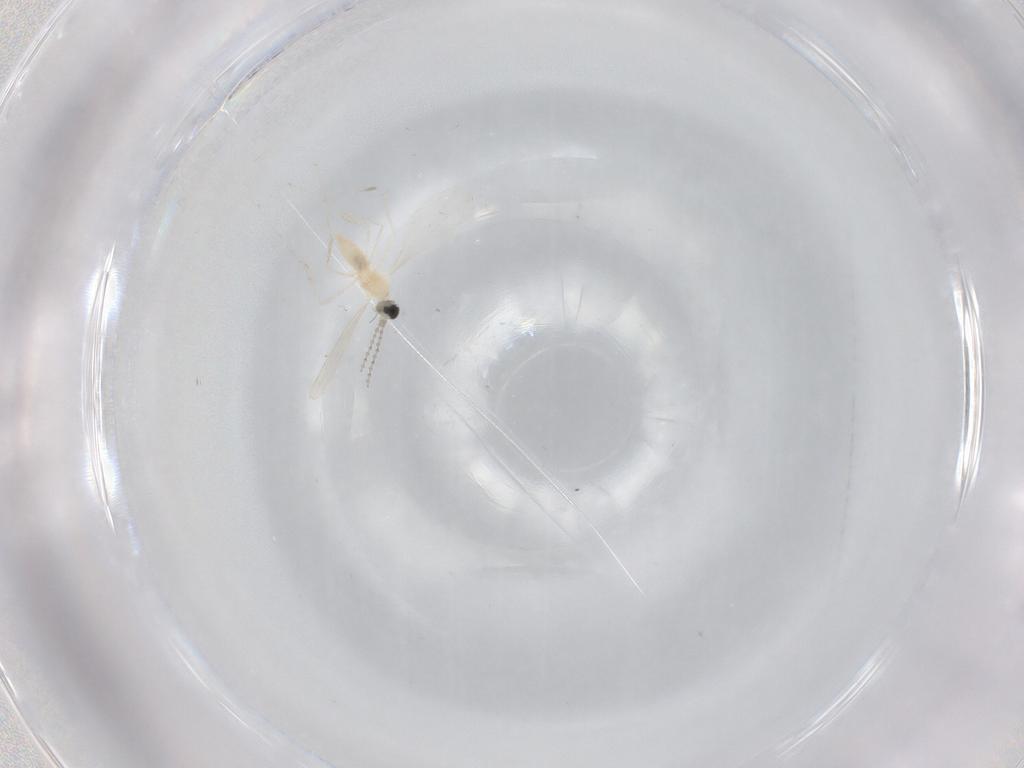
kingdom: Animalia
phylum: Arthropoda
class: Insecta
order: Diptera
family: Cecidomyiidae
